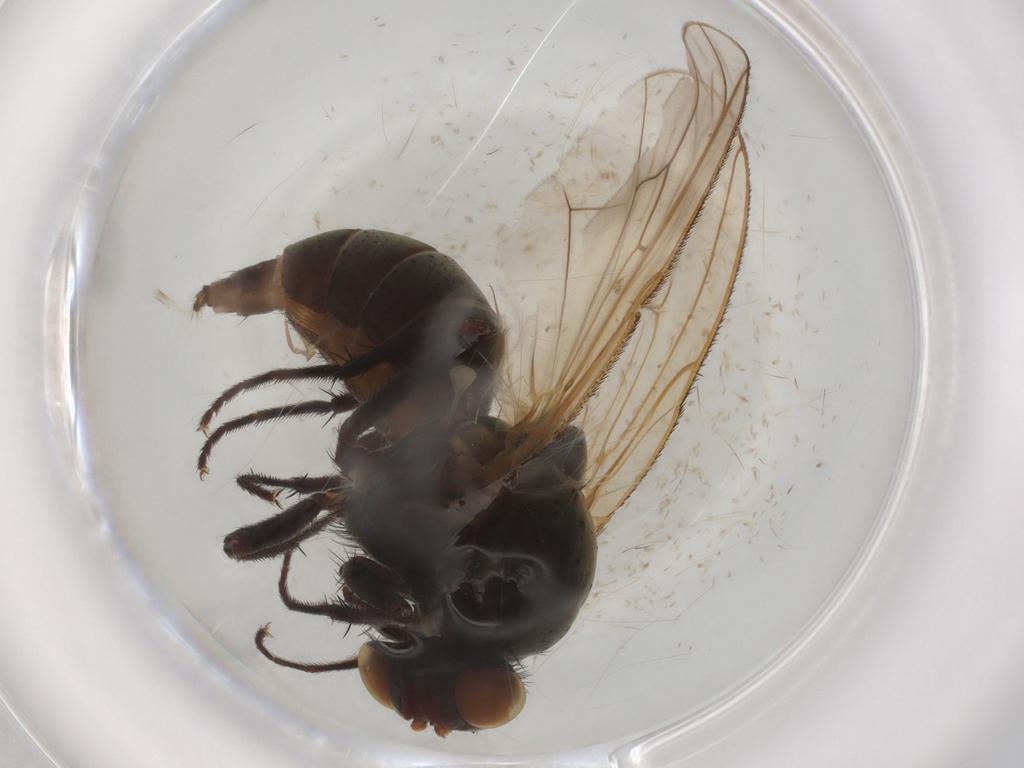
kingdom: Animalia
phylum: Arthropoda
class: Insecta
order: Diptera
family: Anthomyiidae
